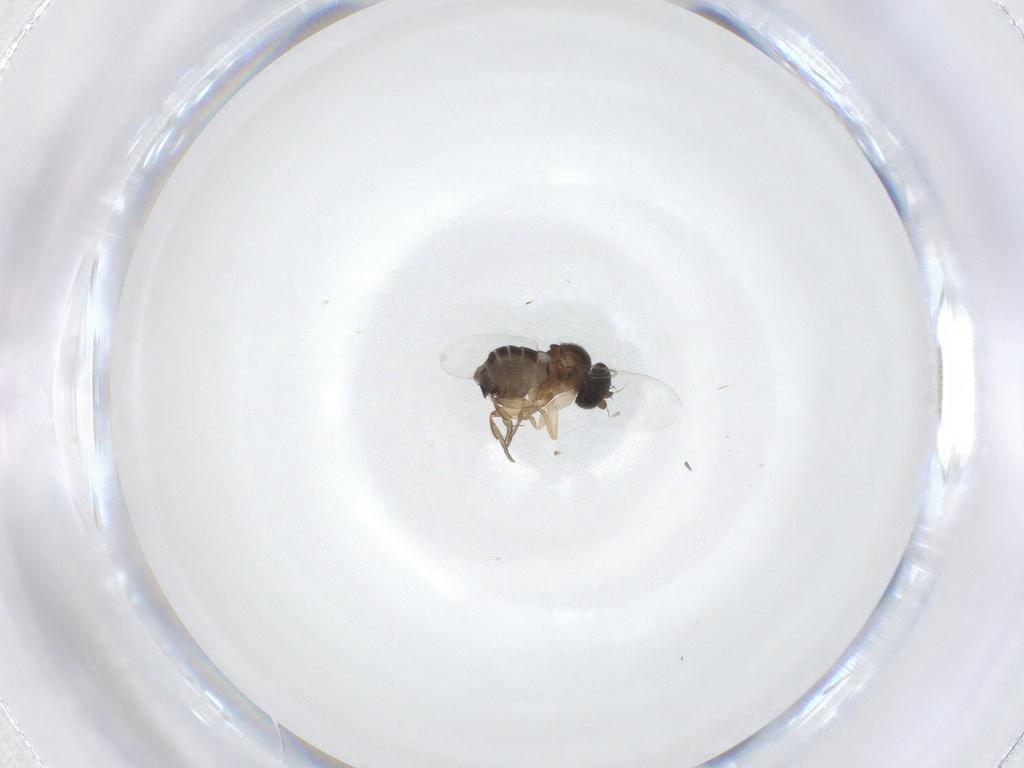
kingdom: Animalia
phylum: Arthropoda
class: Insecta
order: Diptera
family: Phoridae
